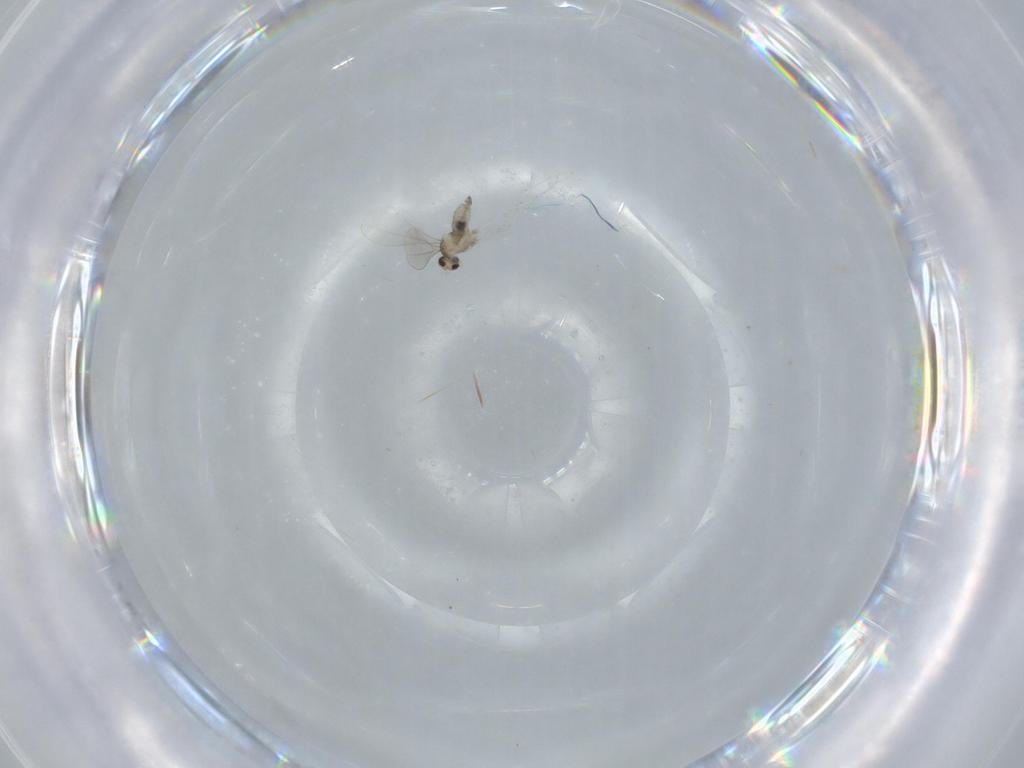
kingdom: Animalia
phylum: Arthropoda
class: Insecta
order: Diptera
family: Cecidomyiidae
